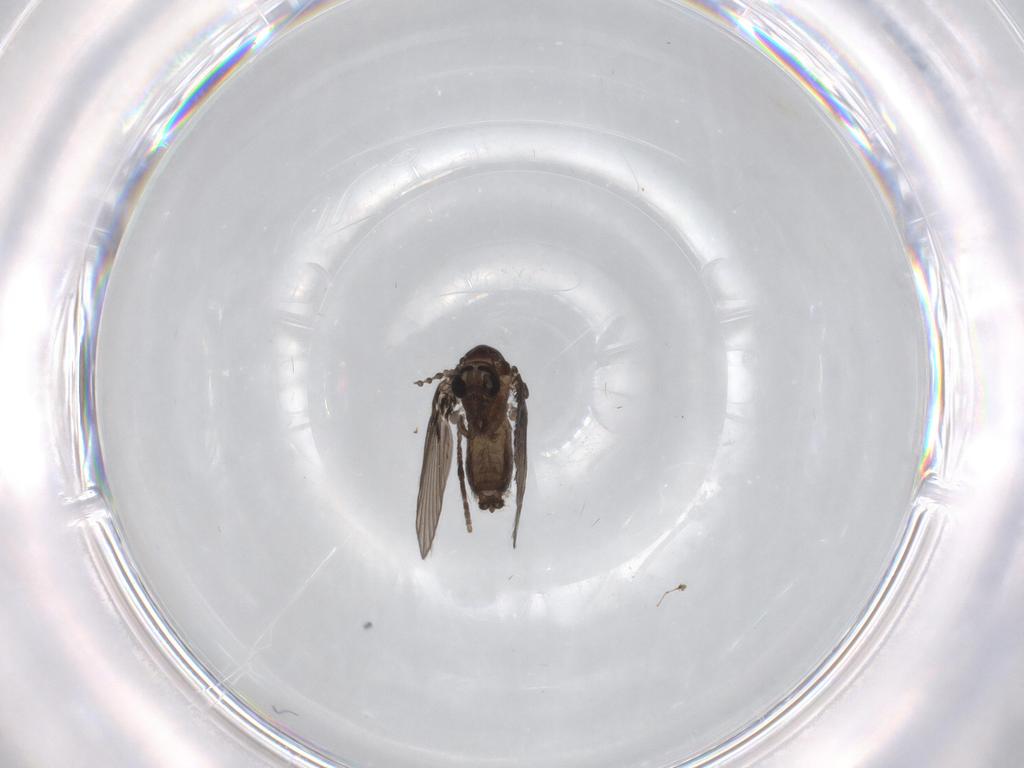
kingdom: Animalia
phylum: Arthropoda
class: Insecta
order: Diptera
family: Psychodidae
